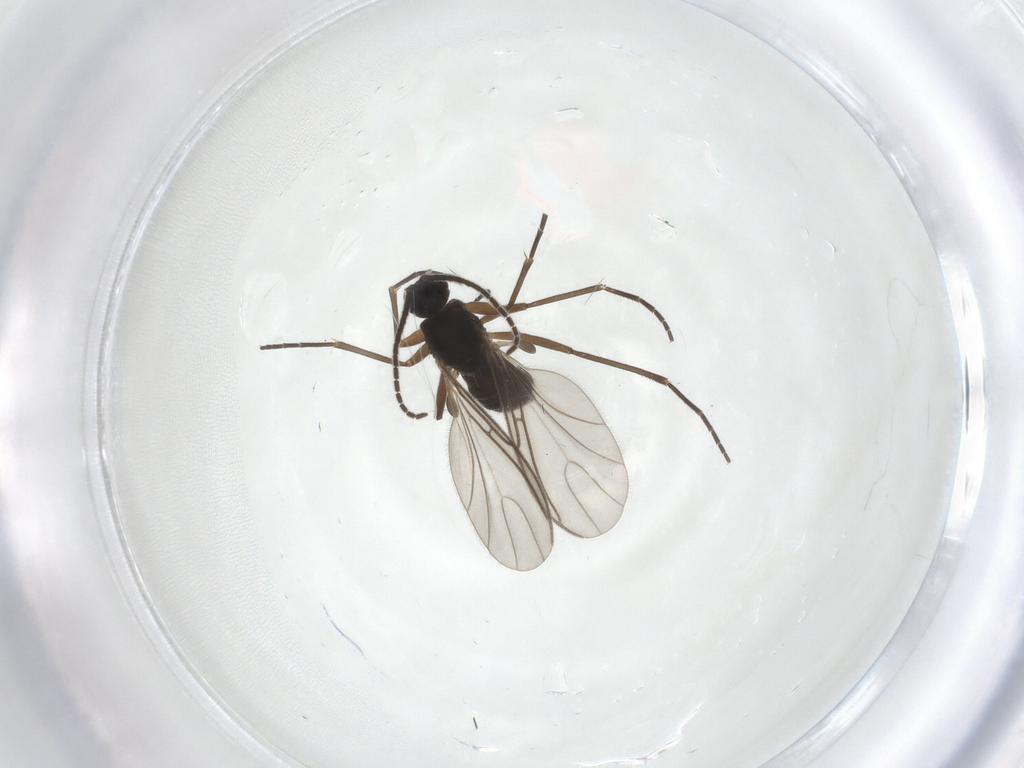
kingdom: Animalia
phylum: Arthropoda
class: Insecta
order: Diptera
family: Sciaridae
